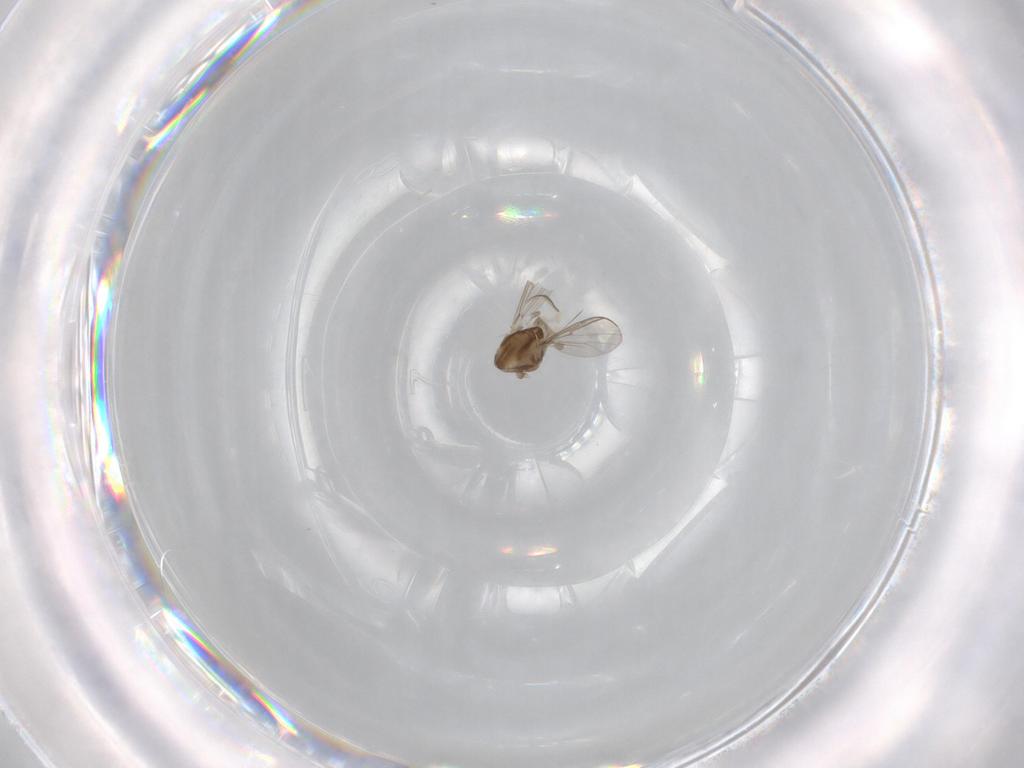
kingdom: Animalia
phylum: Arthropoda
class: Insecta
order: Diptera
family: Chironomidae
